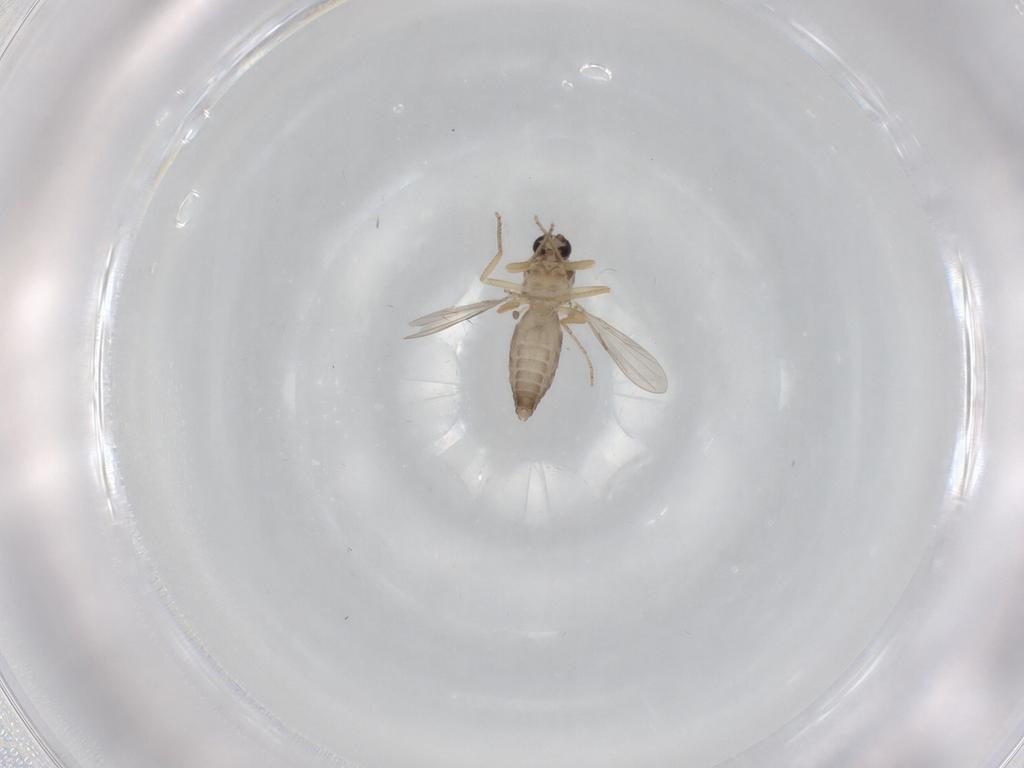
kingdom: Animalia
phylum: Arthropoda
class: Insecta
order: Diptera
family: Ceratopogonidae
